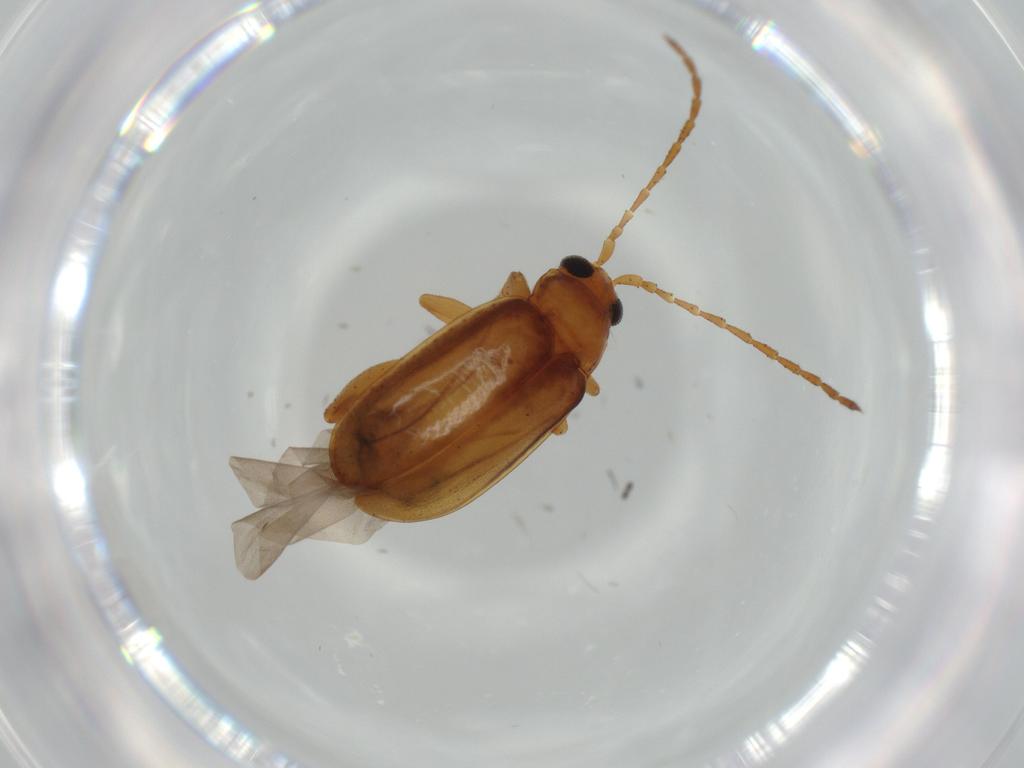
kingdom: Animalia
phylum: Arthropoda
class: Insecta
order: Coleoptera
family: Chrysomelidae
